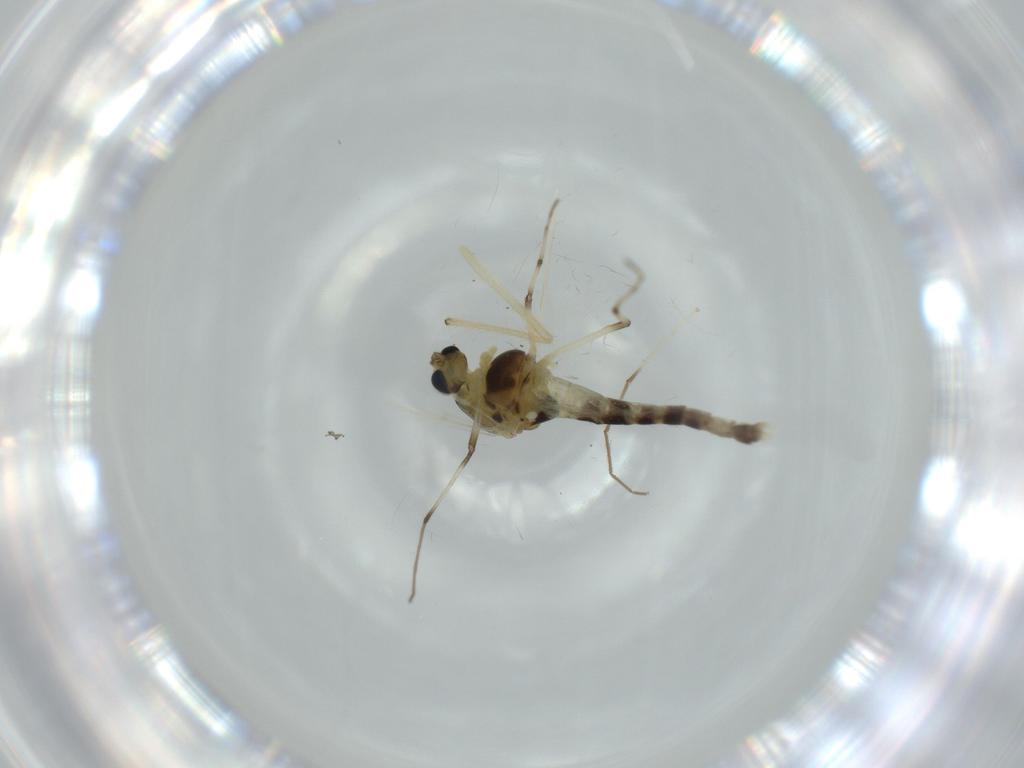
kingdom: Animalia
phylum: Arthropoda
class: Insecta
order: Diptera
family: Chironomidae
